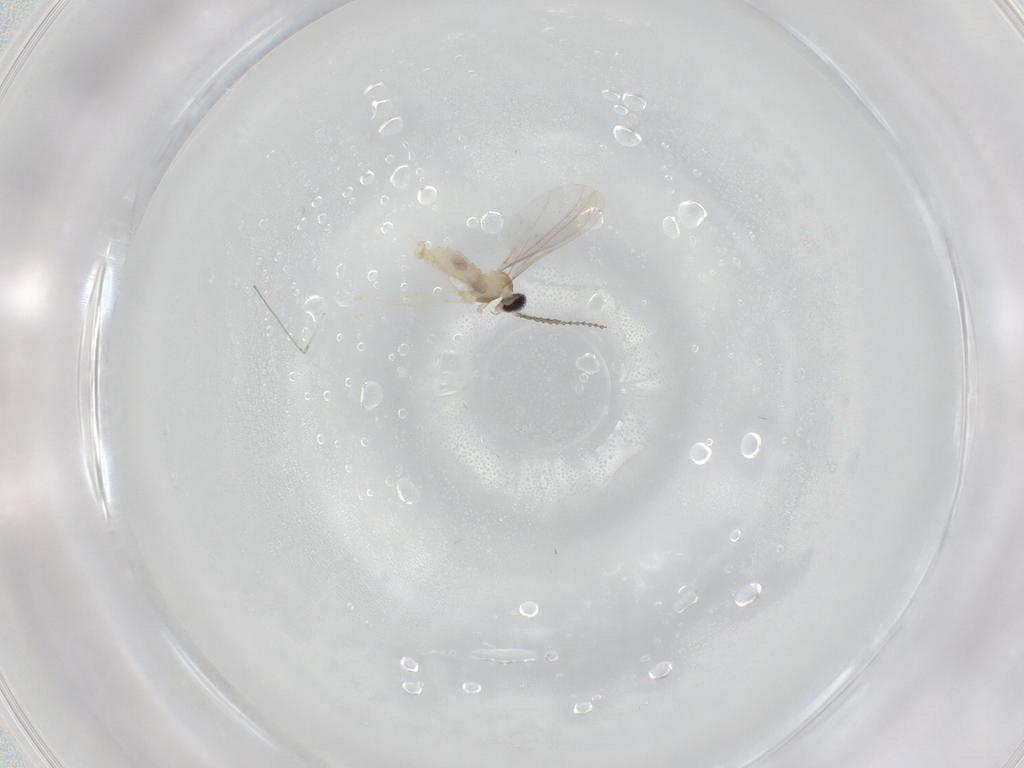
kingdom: Animalia
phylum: Arthropoda
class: Insecta
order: Diptera
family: Cecidomyiidae
